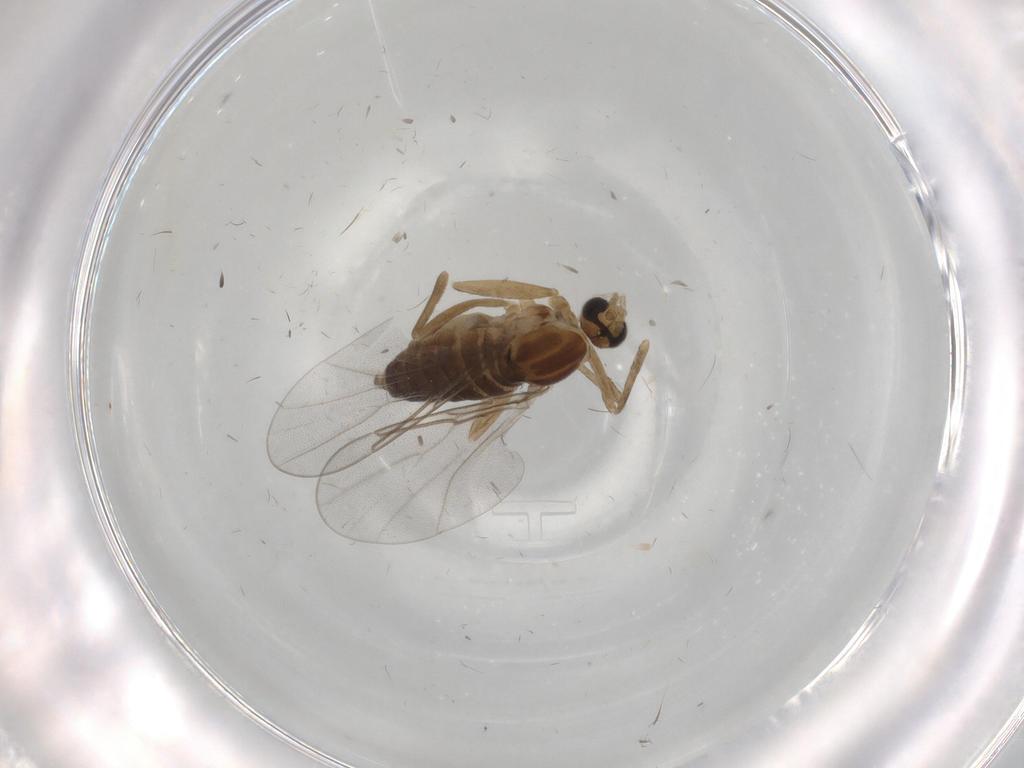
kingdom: Animalia
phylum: Arthropoda
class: Insecta
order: Diptera
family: Cecidomyiidae
